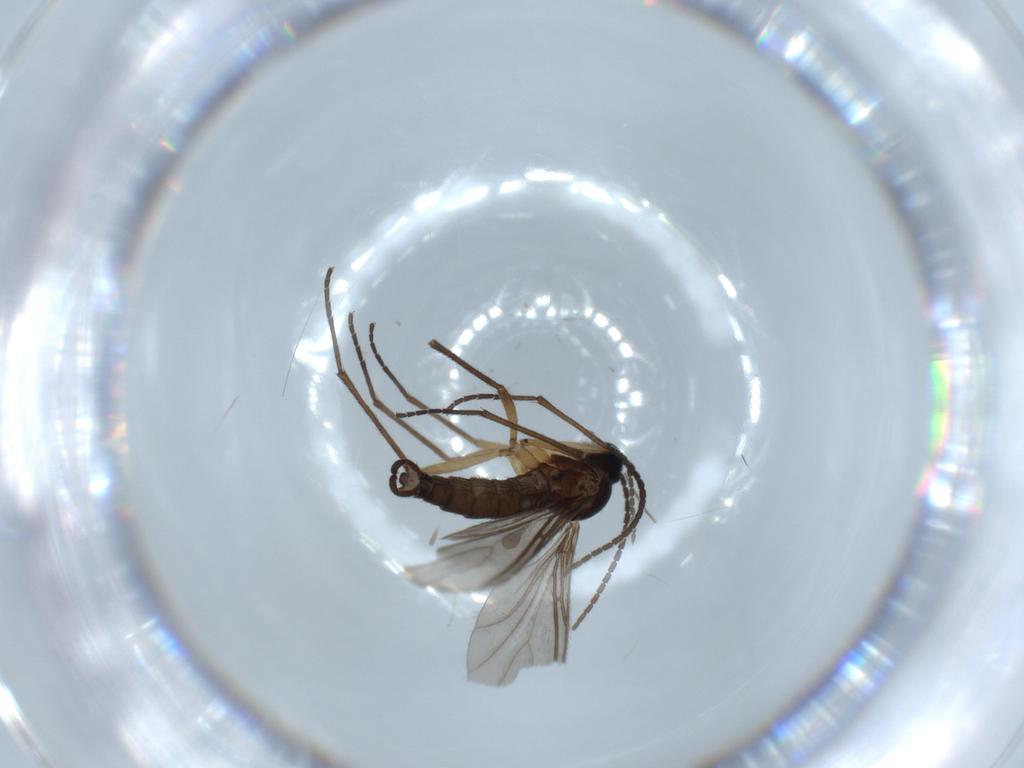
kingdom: Animalia
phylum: Arthropoda
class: Insecta
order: Diptera
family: Sciaridae
